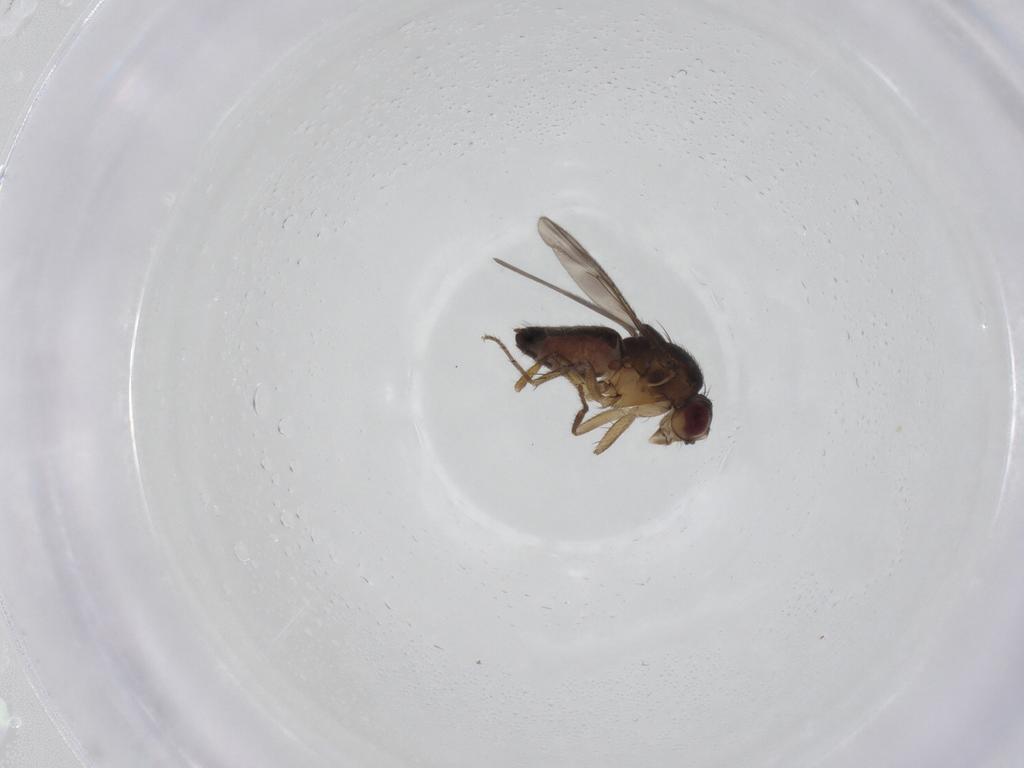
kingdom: Animalia
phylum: Arthropoda
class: Insecta
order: Diptera
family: Sphaeroceridae
